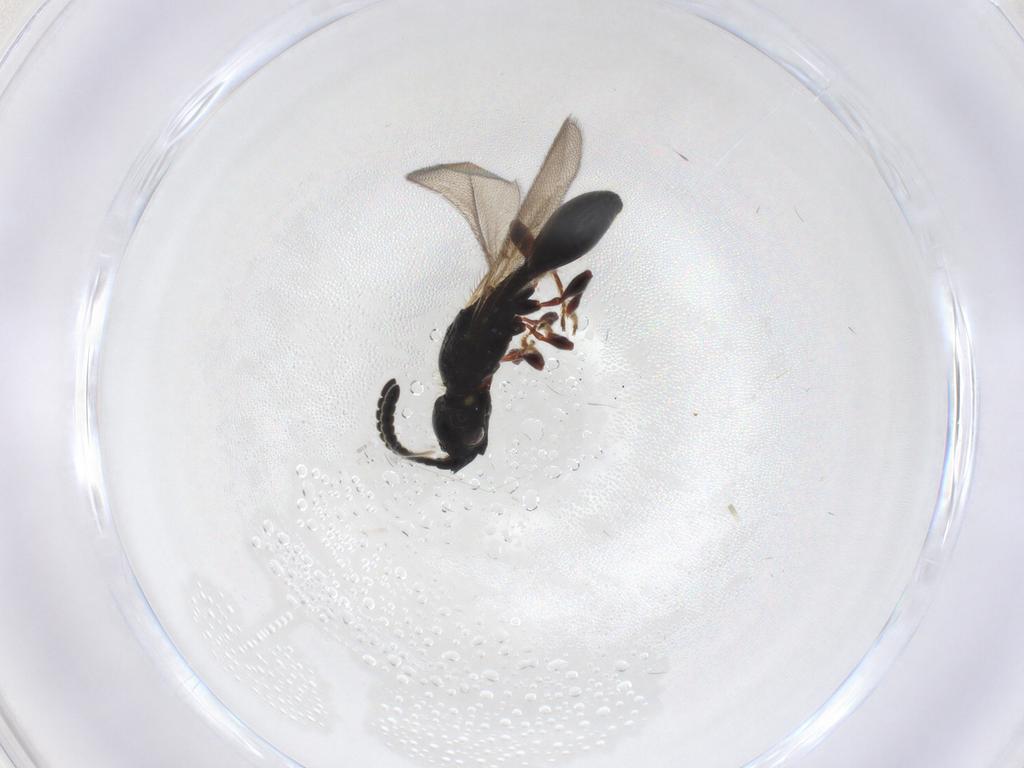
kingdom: Animalia
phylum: Arthropoda
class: Insecta
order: Hymenoptera
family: Diapriidae
